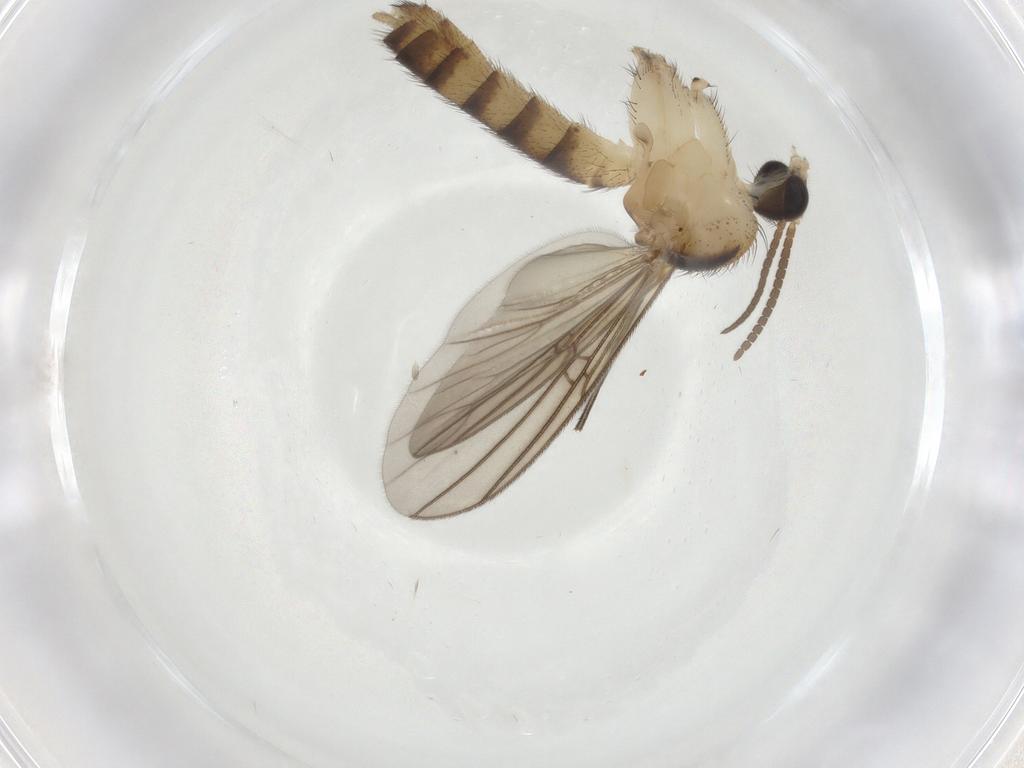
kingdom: Animalia
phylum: Arthropoda
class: Insecta
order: Diptera
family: Mycetophilidae
